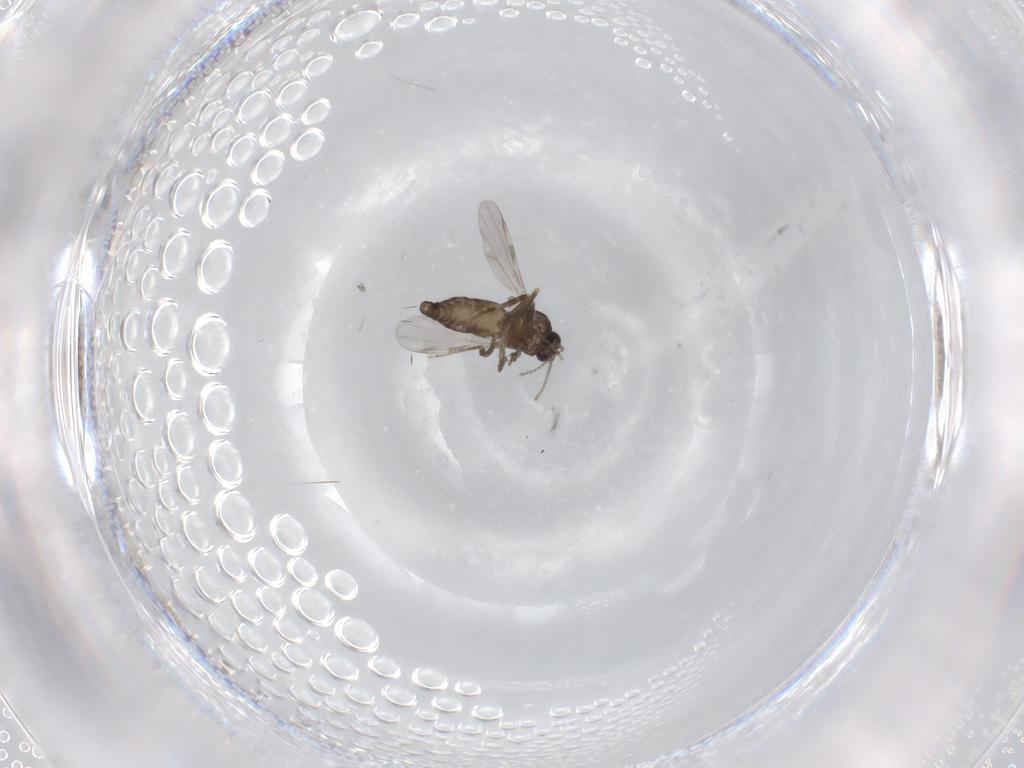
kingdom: Animalia
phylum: Arthropoda
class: Insecta
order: Diptera
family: Ceratopogonidae
